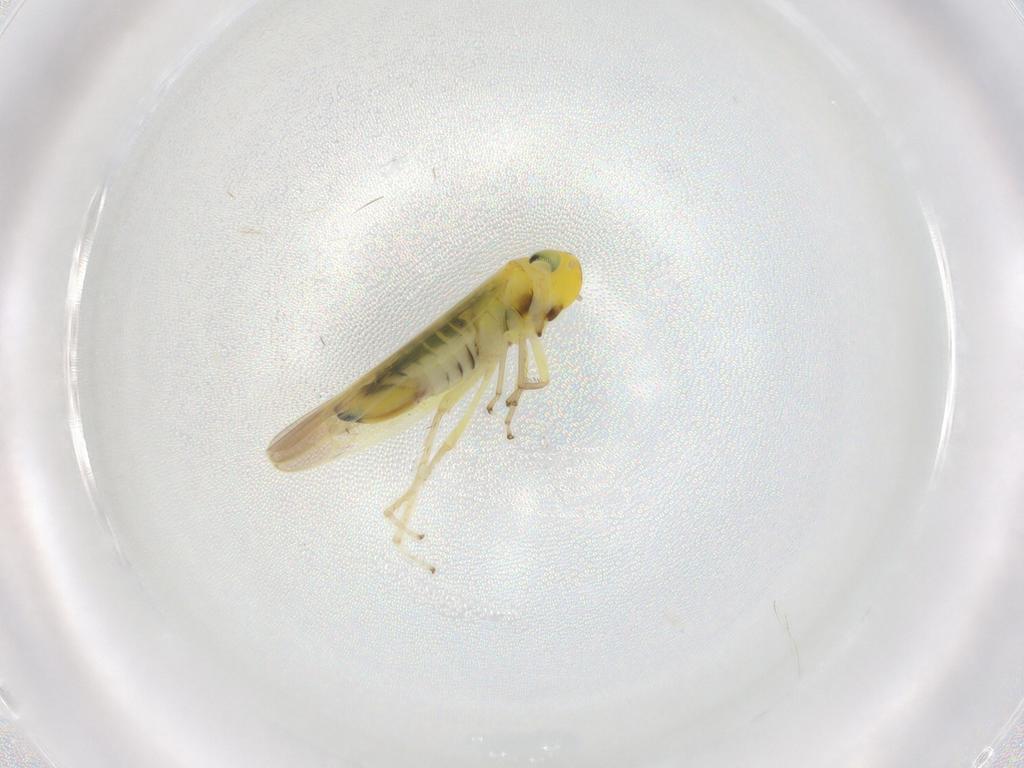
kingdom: Animalia
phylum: Arthropoda
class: Insecta
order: Hemiptera
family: Cicadellidae
